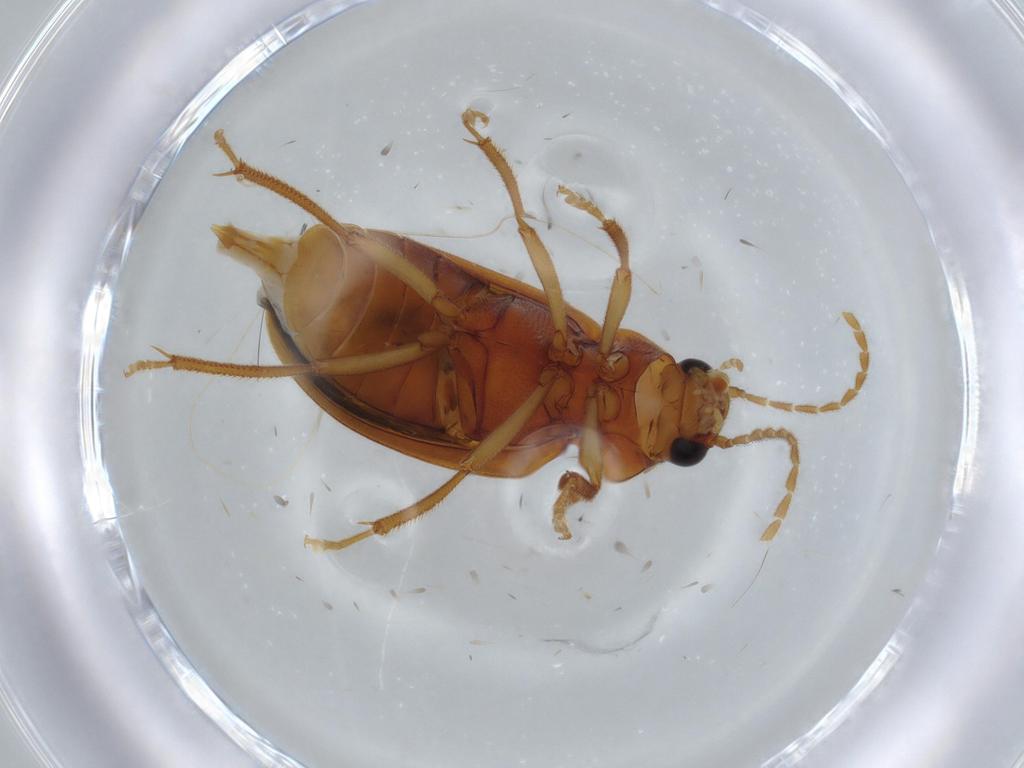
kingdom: Animalia
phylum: Arthropoda
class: Insecta
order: Coleoptera
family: Ptilodactylidae
